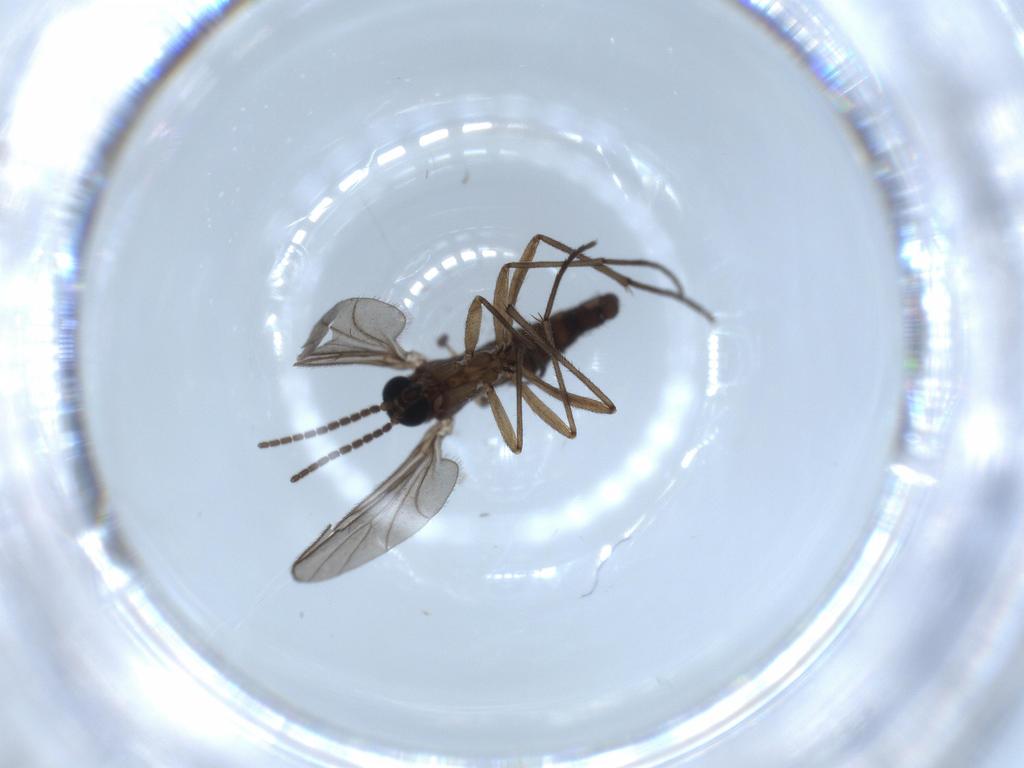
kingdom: Animalia
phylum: Arthropoda
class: Insecta
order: Diptera
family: Sciaridae
